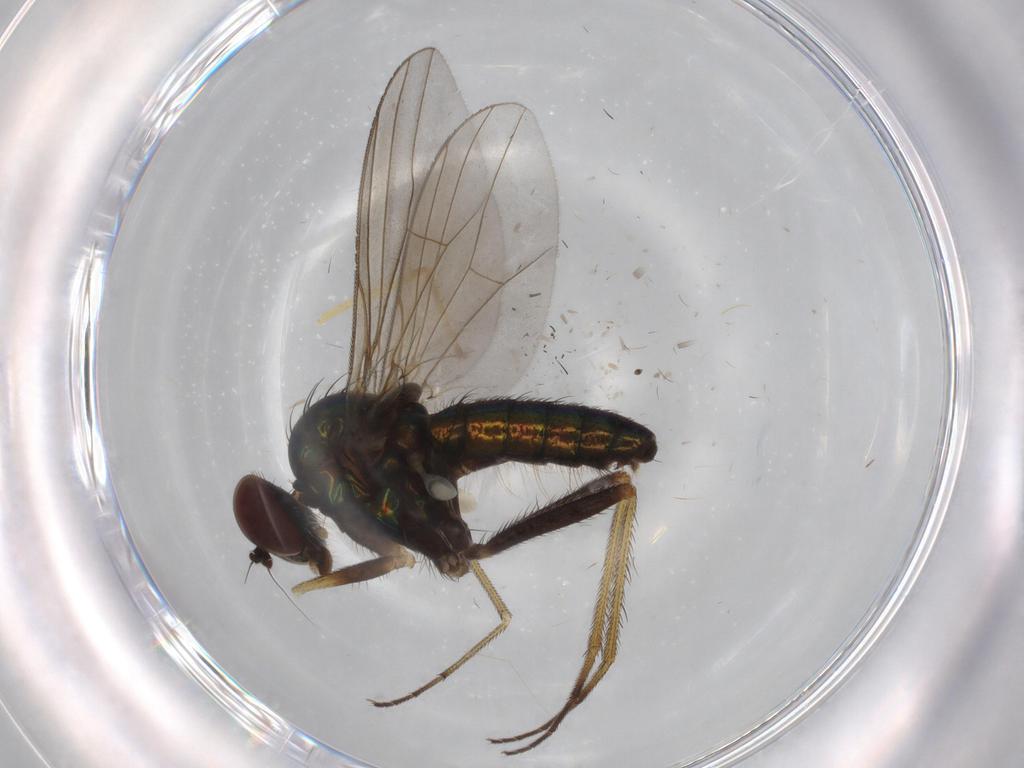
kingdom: Animalia
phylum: Arthropoda
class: Insecta
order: Diptera
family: Dolichopodidae
